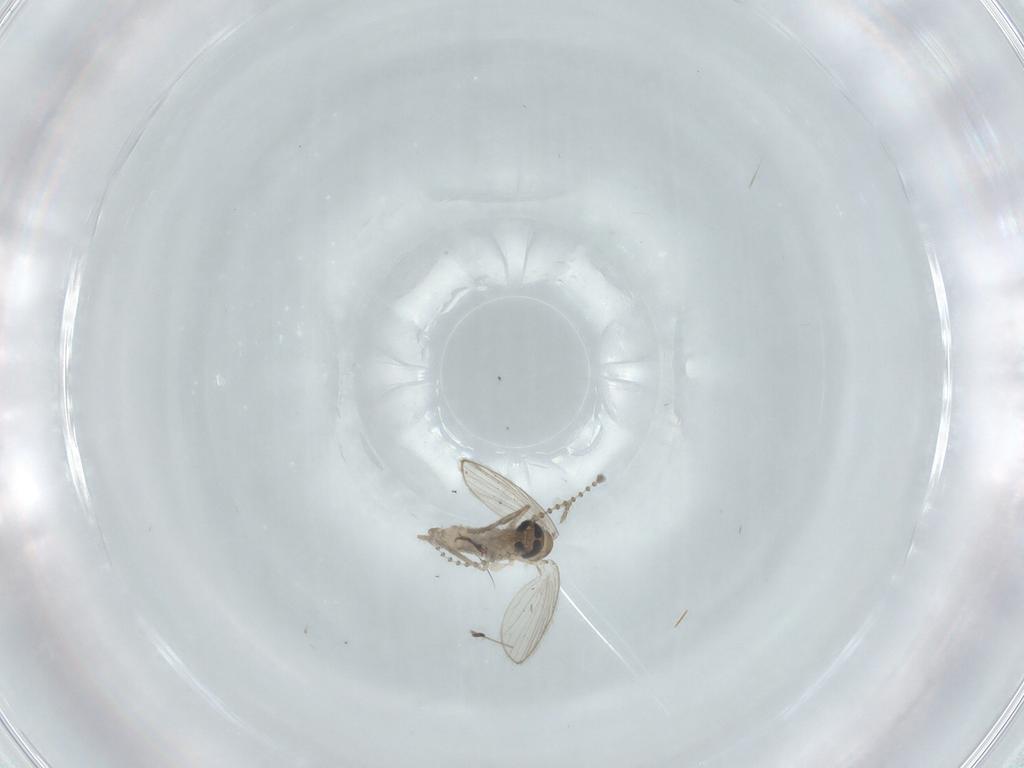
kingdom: Animalia
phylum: Arthropoda
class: Insecta
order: Diptera
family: Psychodidae
